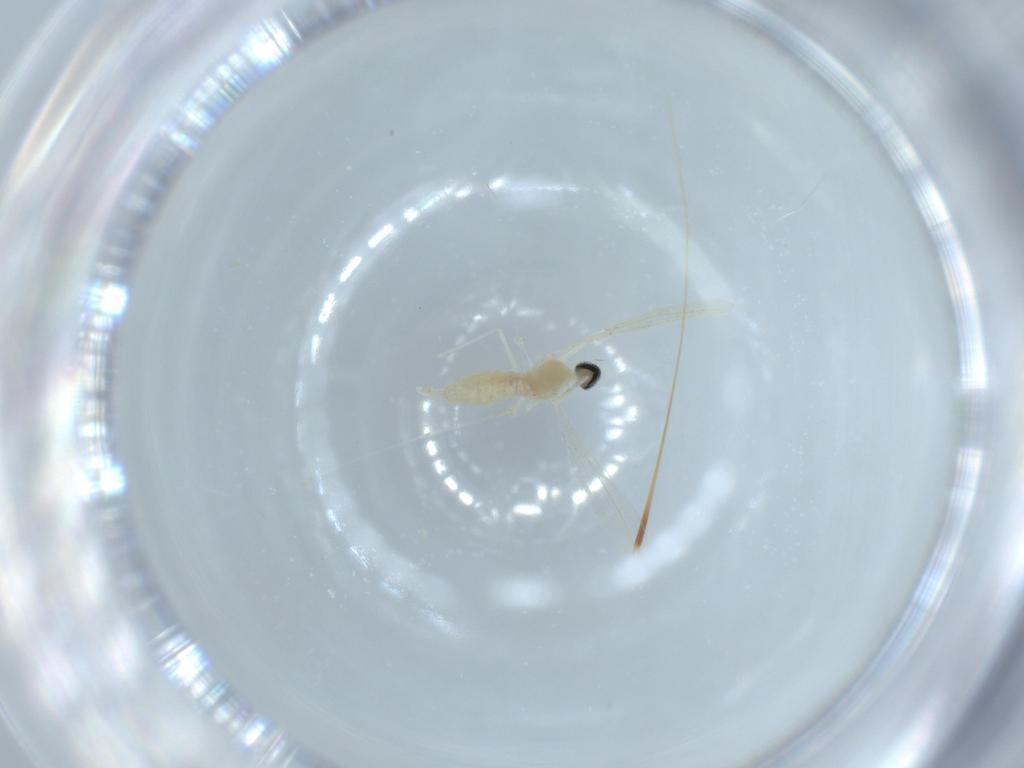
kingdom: Animalia
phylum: Arthropoda
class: Insecta
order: Diptera
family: Cecidomyiidae
